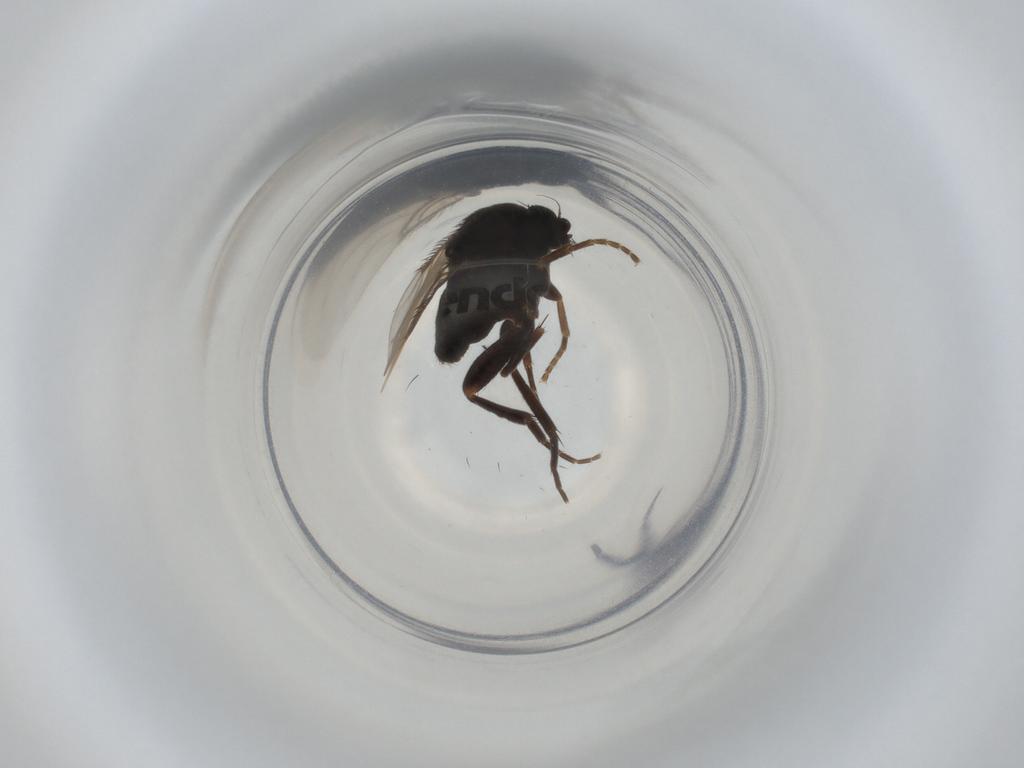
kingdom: Animalia
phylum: Arthropoda
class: Insecta
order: Diptera
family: Phoridae
